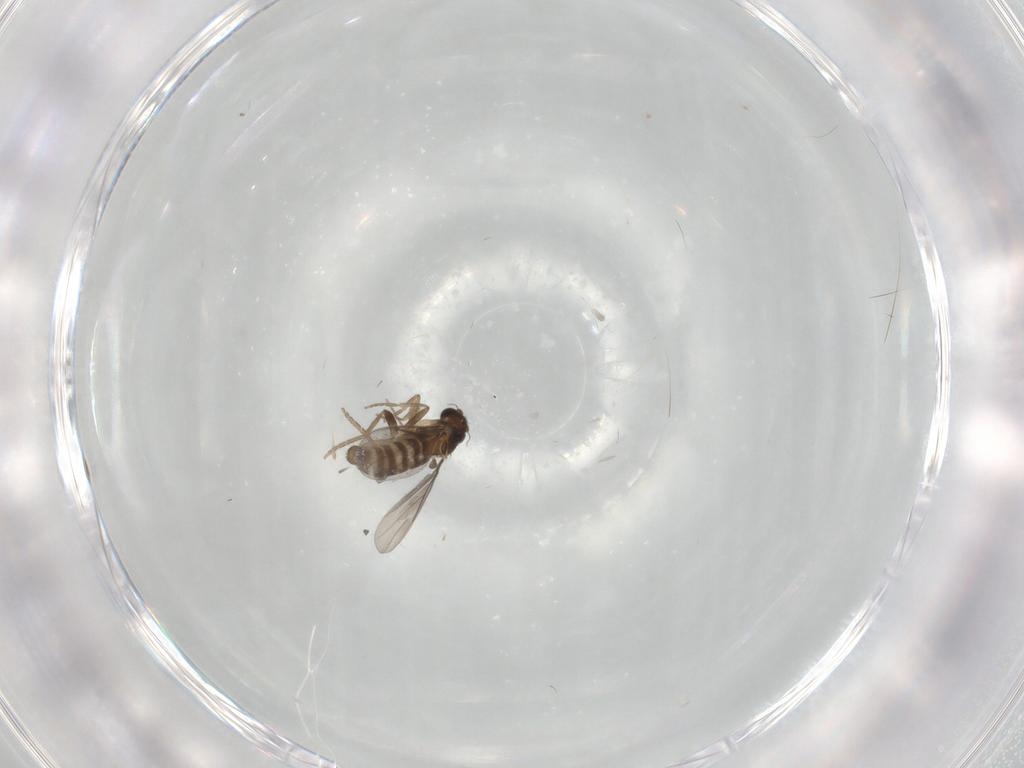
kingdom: Animalia
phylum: Arthropoda
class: Insecta
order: Diptera
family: Cecidomyiidae
